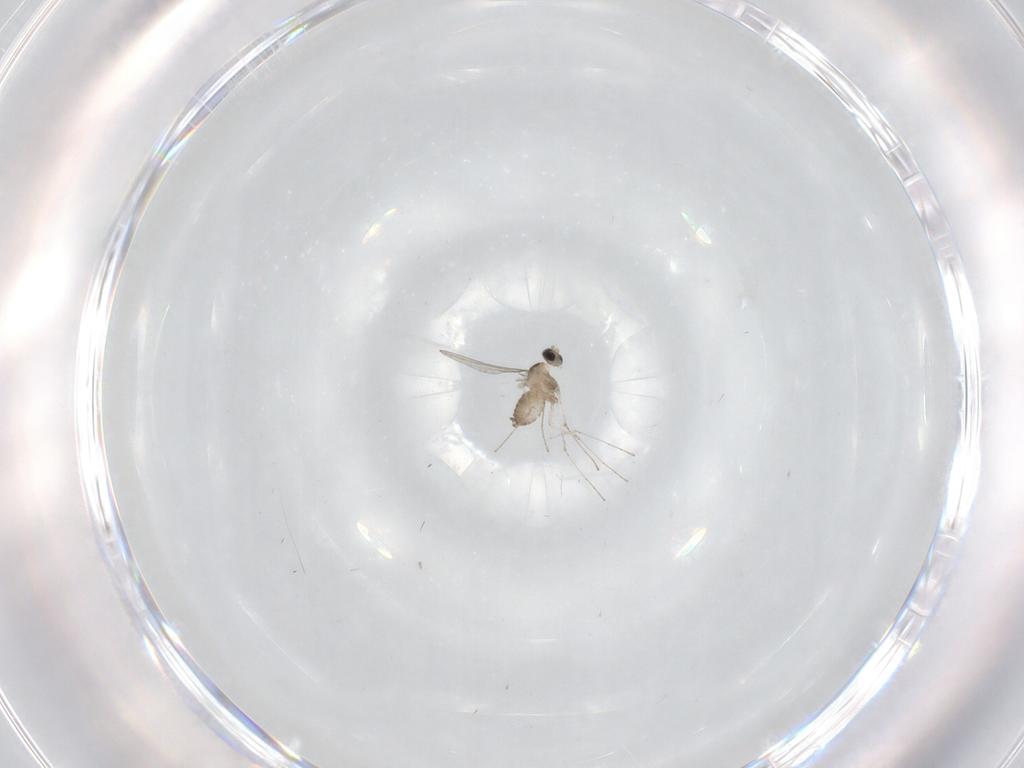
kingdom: Animalia
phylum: Arthropoda
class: Insecta
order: Diptera
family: Cecidomyiidae
